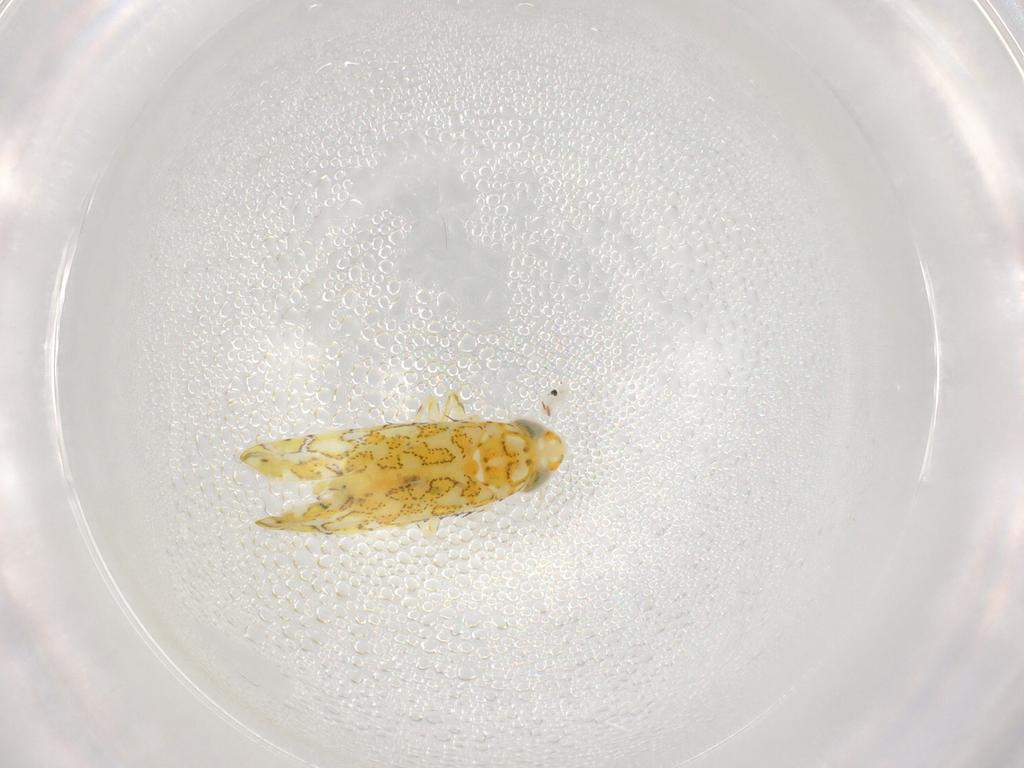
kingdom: Animalia
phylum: Arthropoda
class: Insecta
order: Hemiptera
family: Cicadellidae
